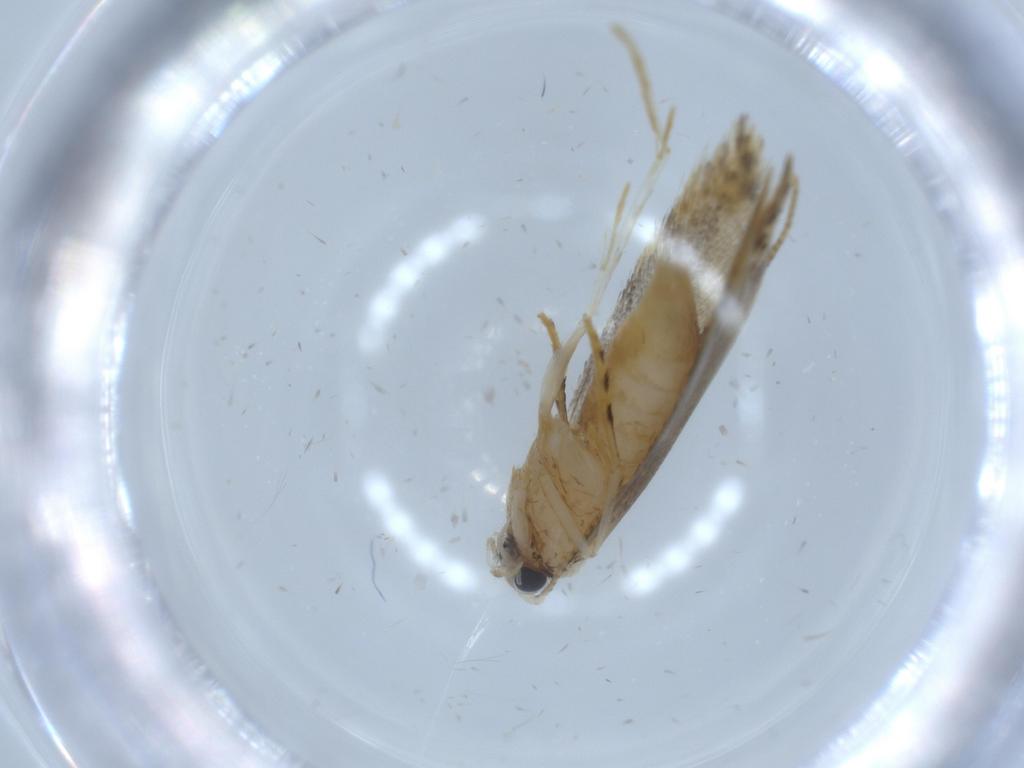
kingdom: Animalia
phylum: Arthropoda
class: Insecta
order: Lepidoptera
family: Tineidae
